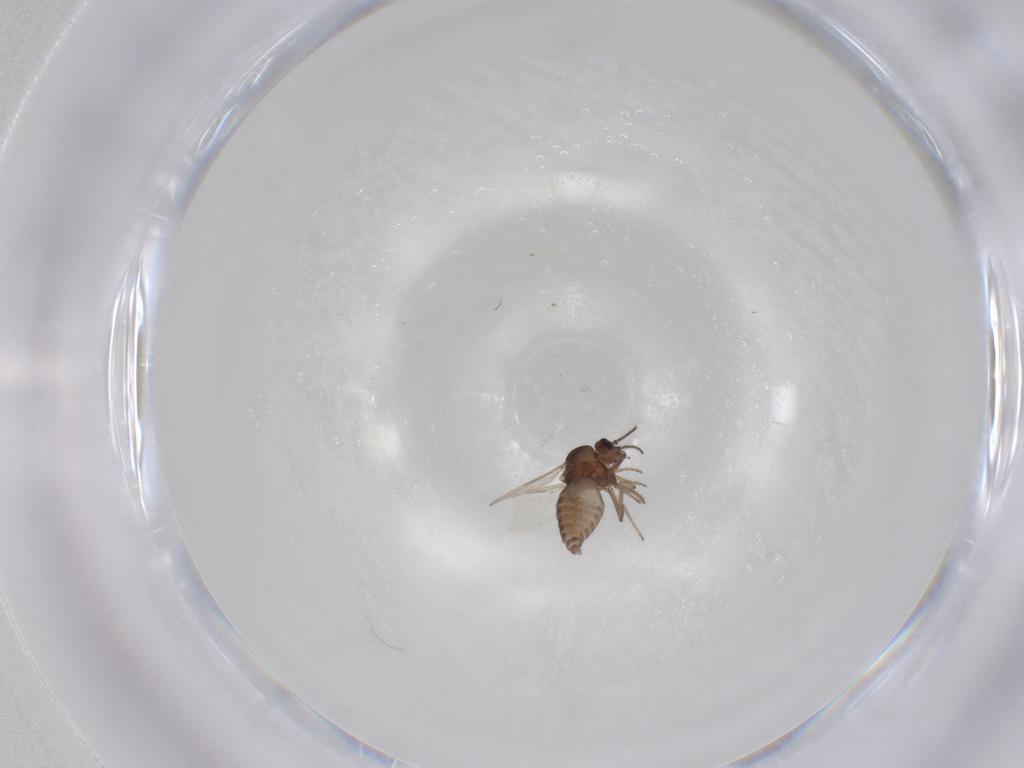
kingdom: Animalia
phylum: Arthropoda
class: Insecta
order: Diptera
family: Ceratopogonidae
